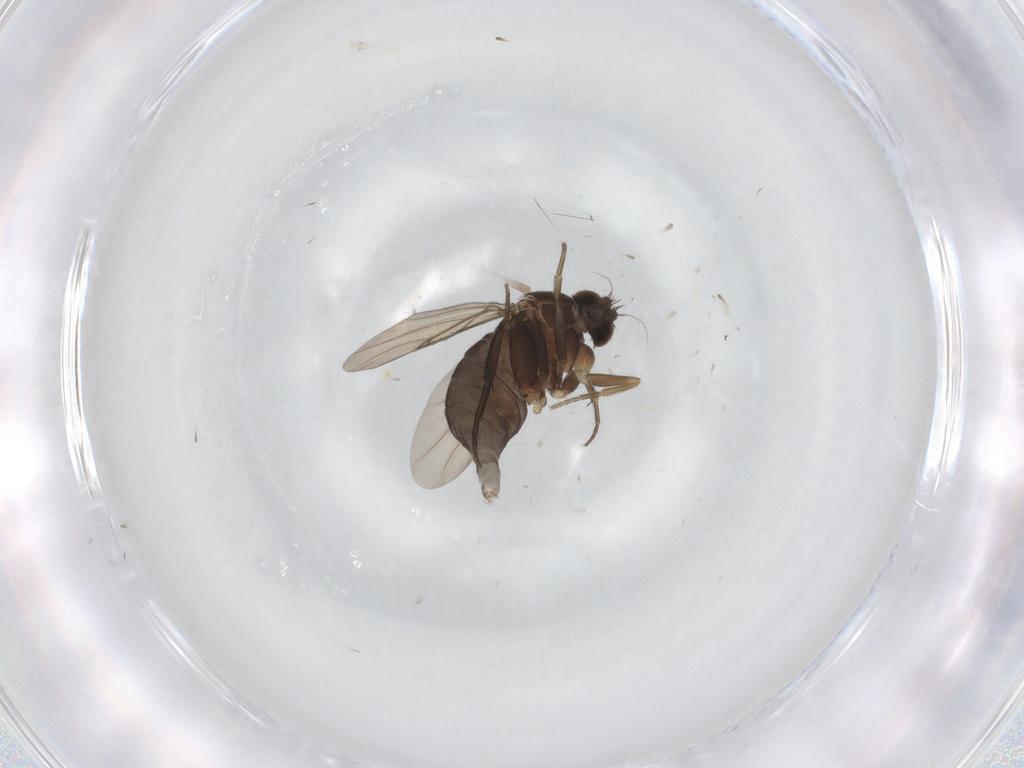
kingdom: Animalia
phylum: Arthropoda
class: Insecta
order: Diptera
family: Phoridae
